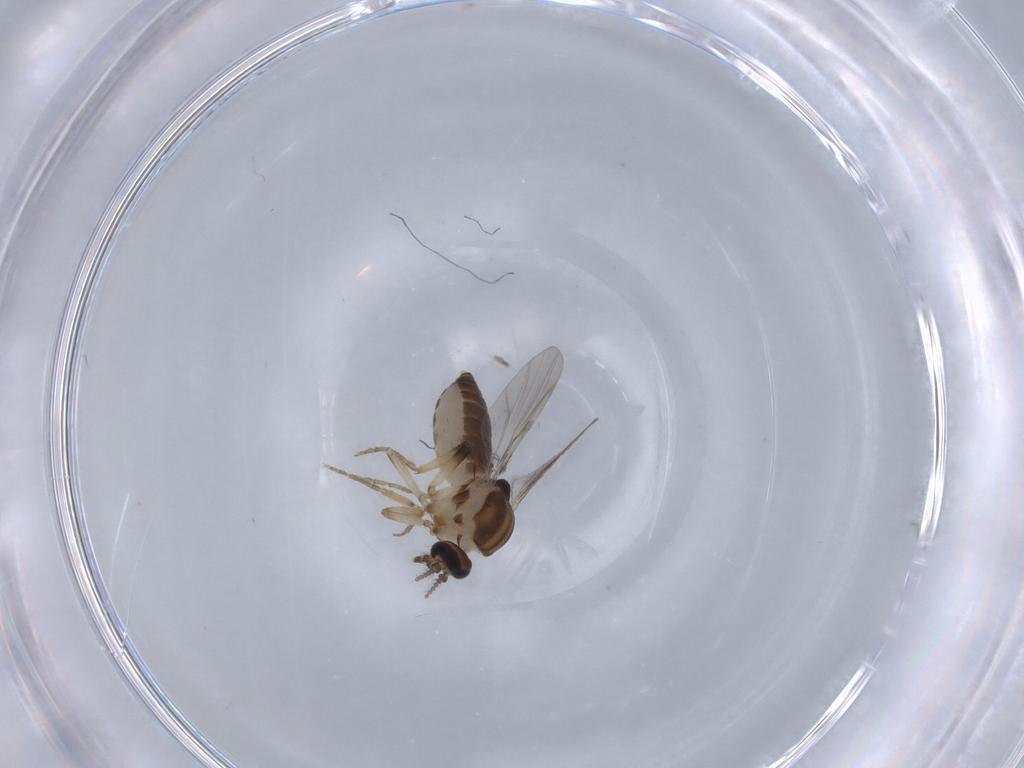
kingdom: Animalia
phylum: Arthropoda
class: Insecta
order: Diptera
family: Ceratopogonidae
